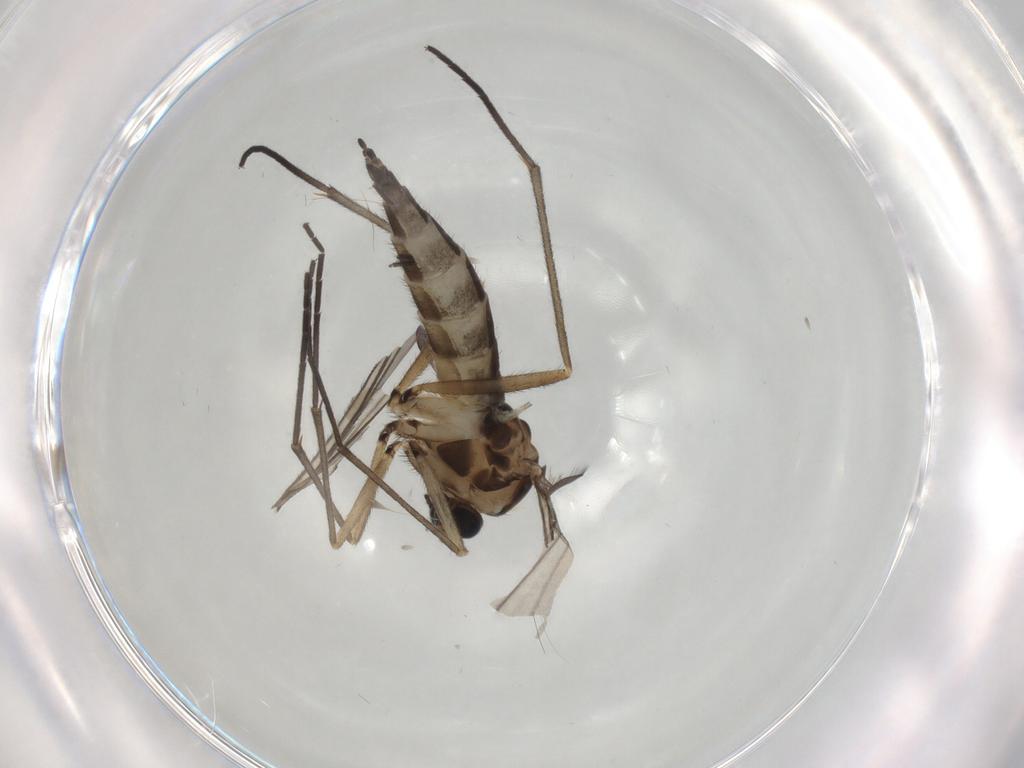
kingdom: Animalia
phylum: Arthropoda
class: Insecta
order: Diptera
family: Sciaridae
